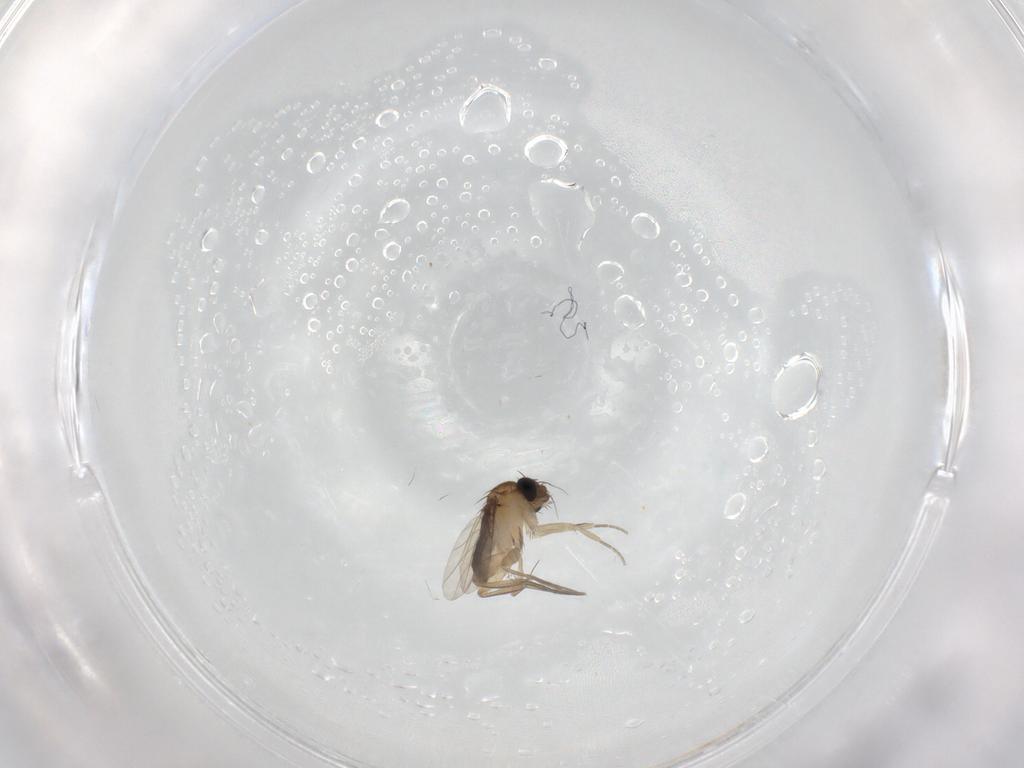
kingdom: Animalia
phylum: Arthropoda
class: Insecta
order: Diptera
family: Phoridae
